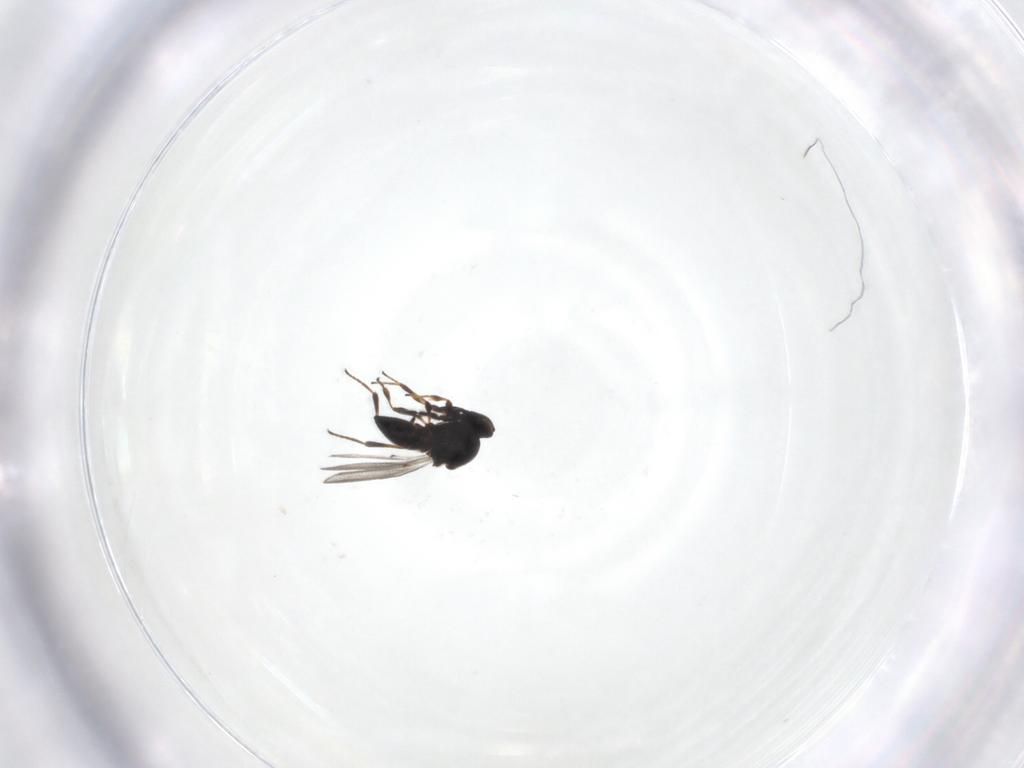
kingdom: Animalia
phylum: Arthropoda
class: Insecta
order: Hymenoptera
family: Platygastridae
